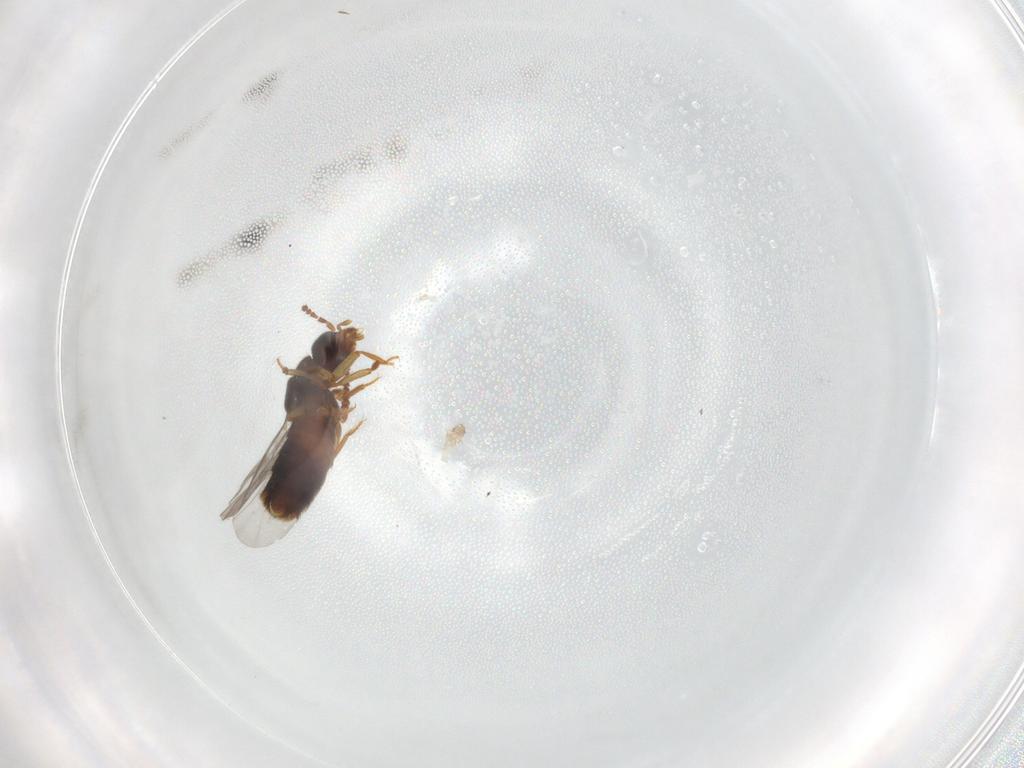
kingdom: Animalia
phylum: Arthropoda
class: Insecta
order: Coleoptera
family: Staphylinidae
